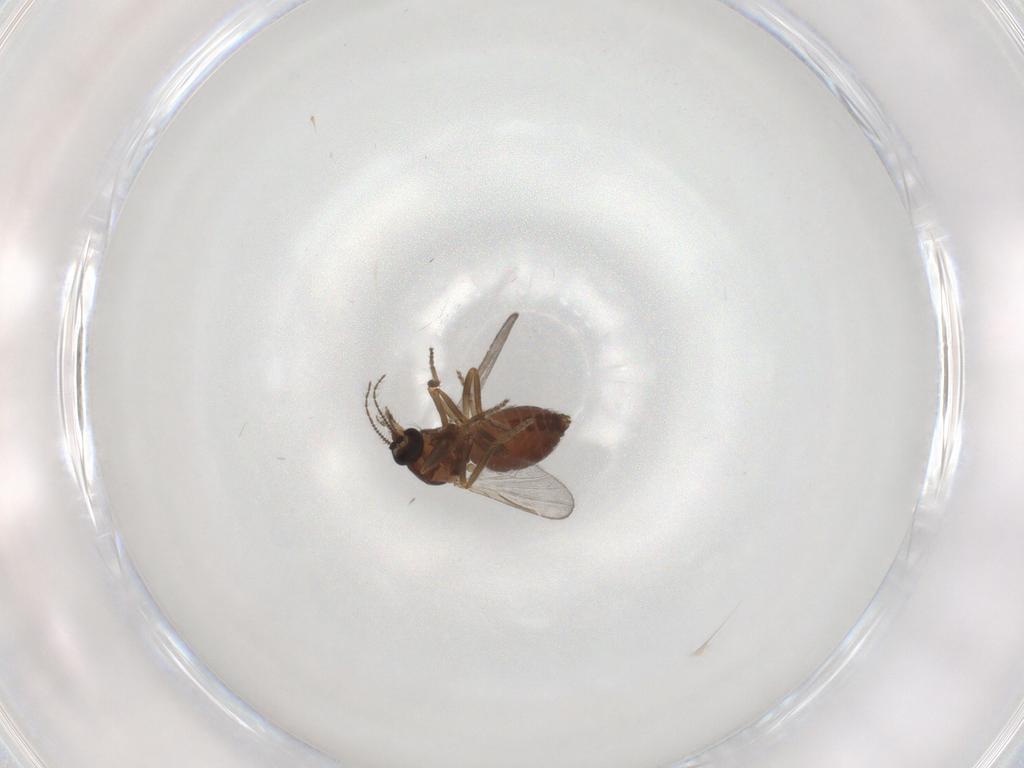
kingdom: Animalia
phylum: Arthropoda
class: Insecta
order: Diptera
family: Ceratopogonidae
